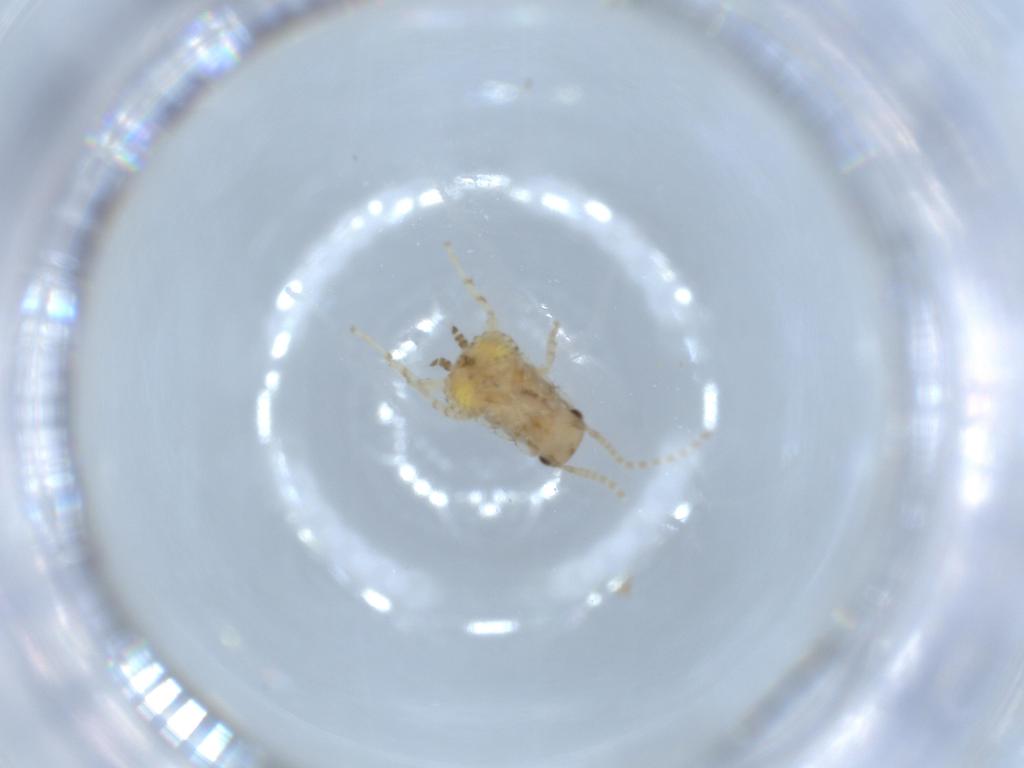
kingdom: Animalia
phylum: Arthropoda
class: Insecta
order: Blattodea
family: Ectobiidae
